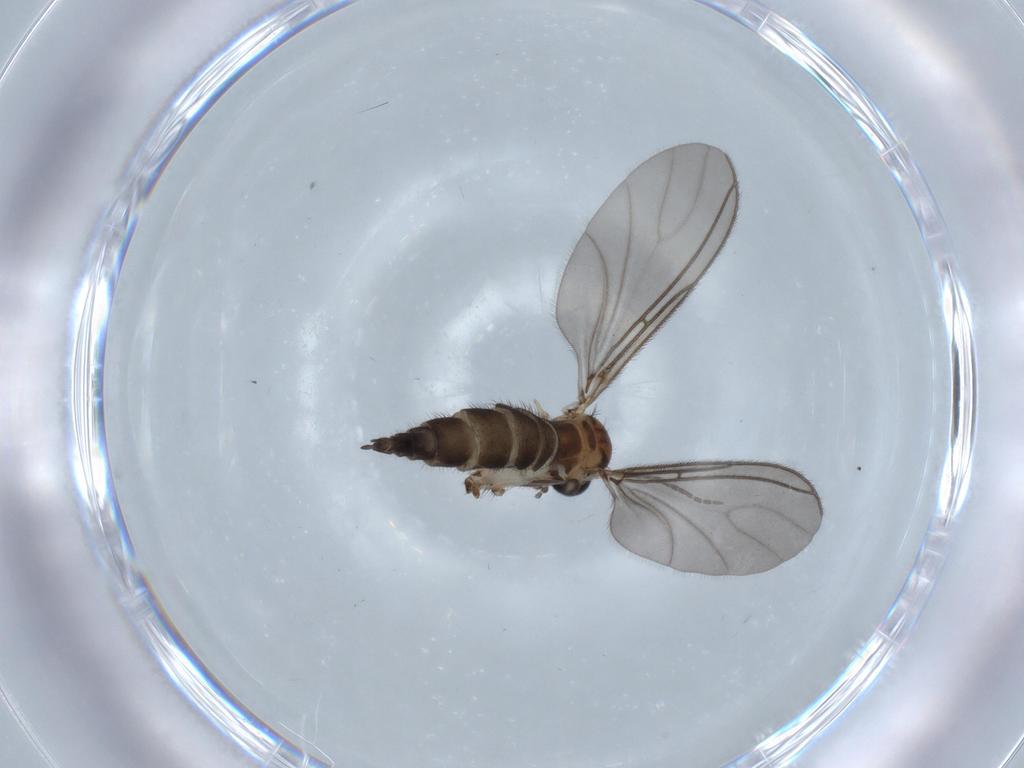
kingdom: Animalia
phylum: Arthropoda
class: Insecta
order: Diptera
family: Sciaridae
